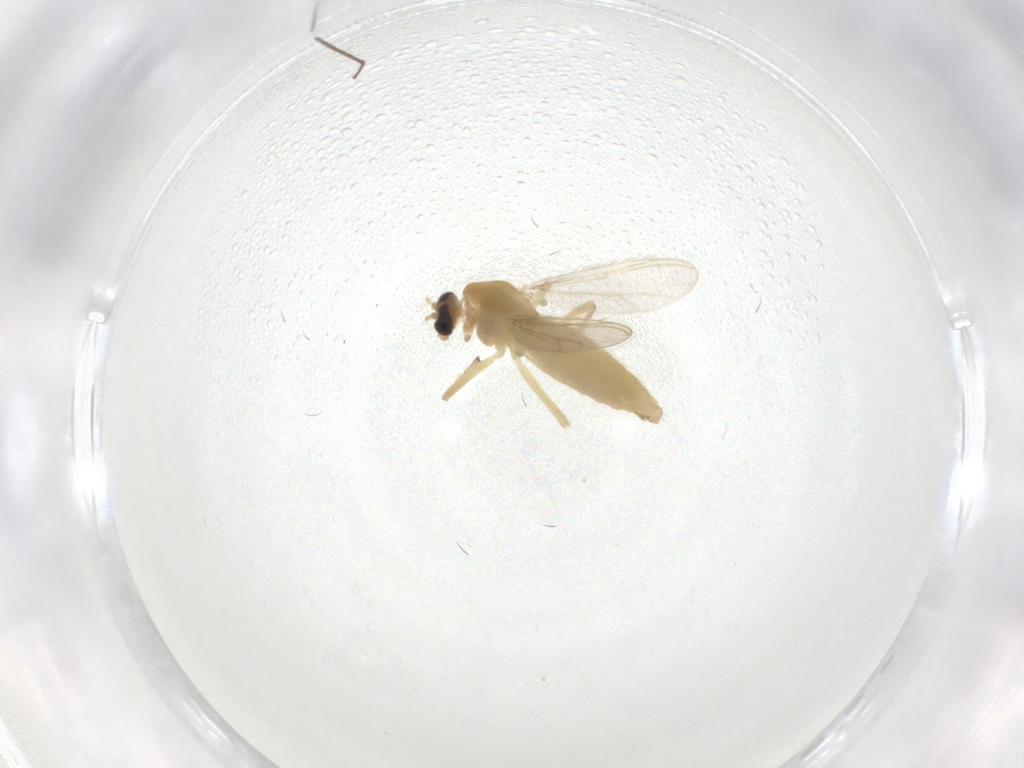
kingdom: Animalia
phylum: Arthropoda
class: Insecta
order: Diptera
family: Chironomidae
